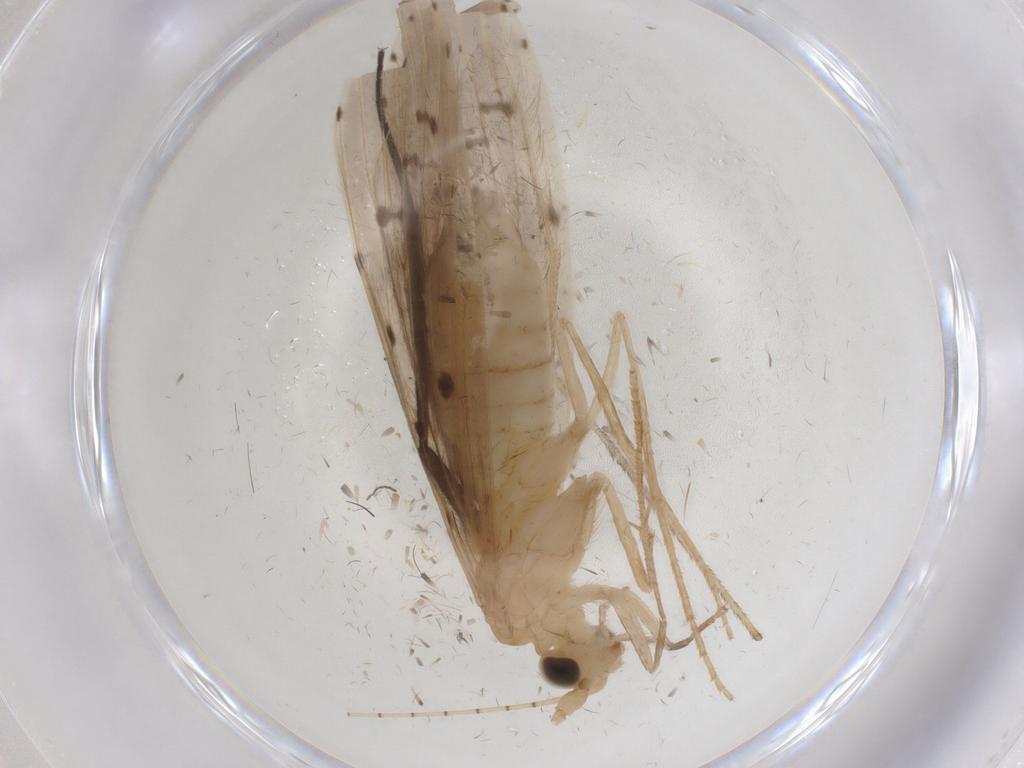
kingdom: Animalia
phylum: Arthropoda
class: Insecta
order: Trichoptera
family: Leptoceridae
